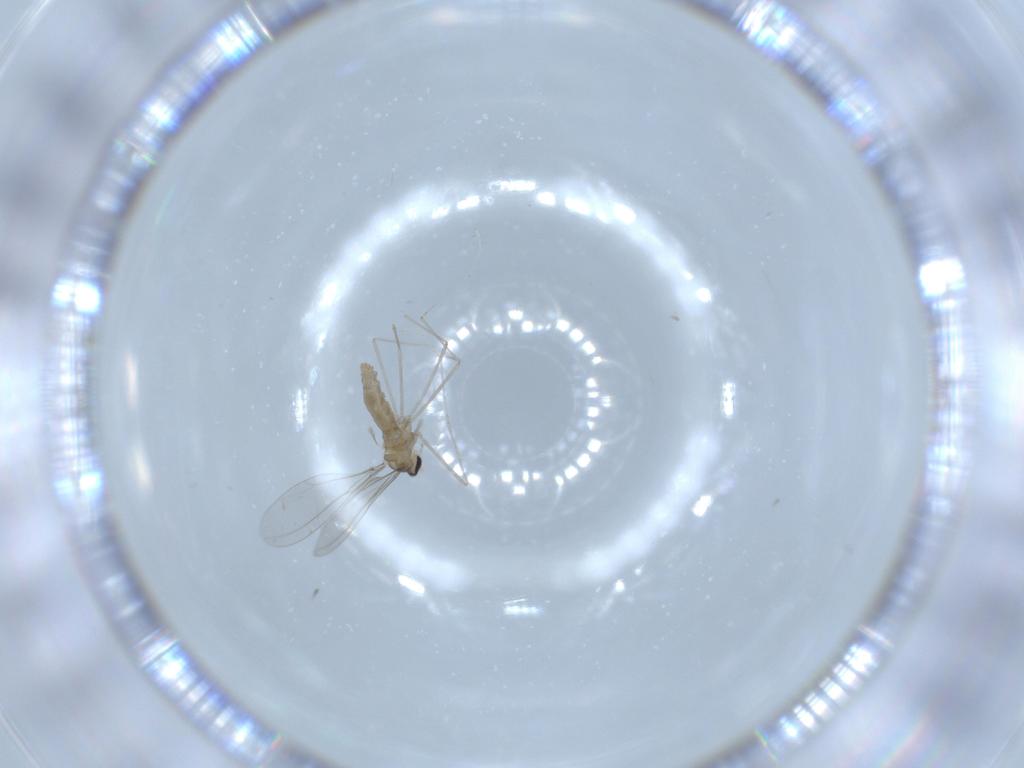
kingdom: Animalia
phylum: Arthropoda
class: Insecta
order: Diptera
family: Cecidomyiidae
